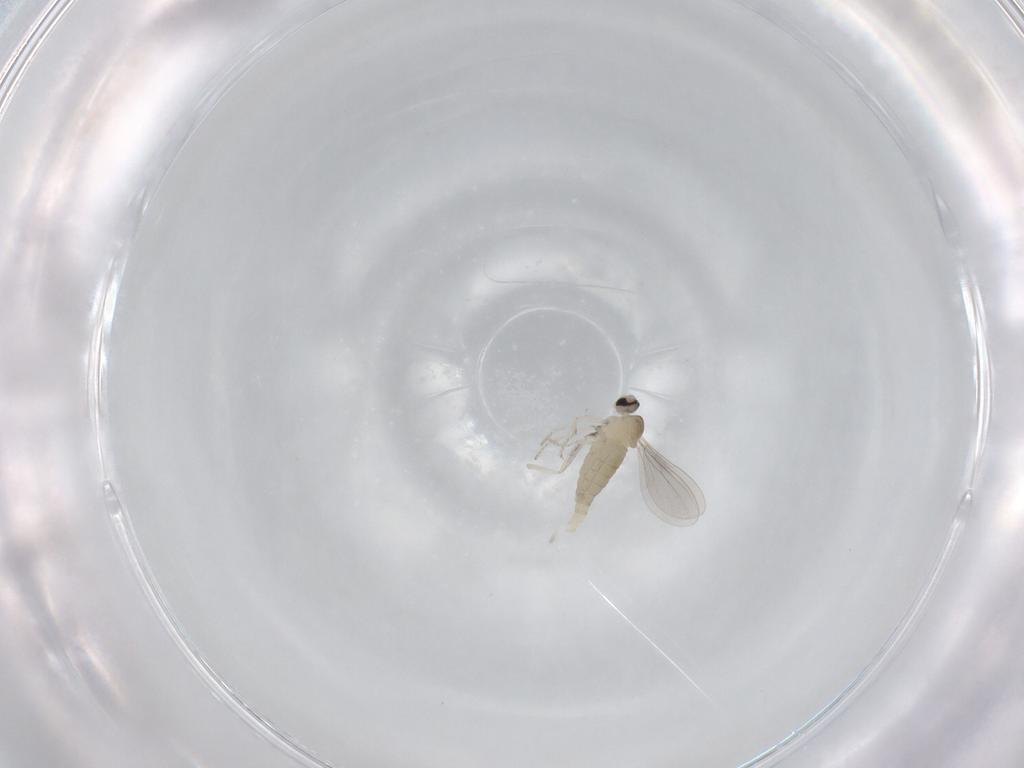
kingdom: Animalia
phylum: Arthropoda
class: Insecta
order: Diptera
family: Cecidomyiidae
